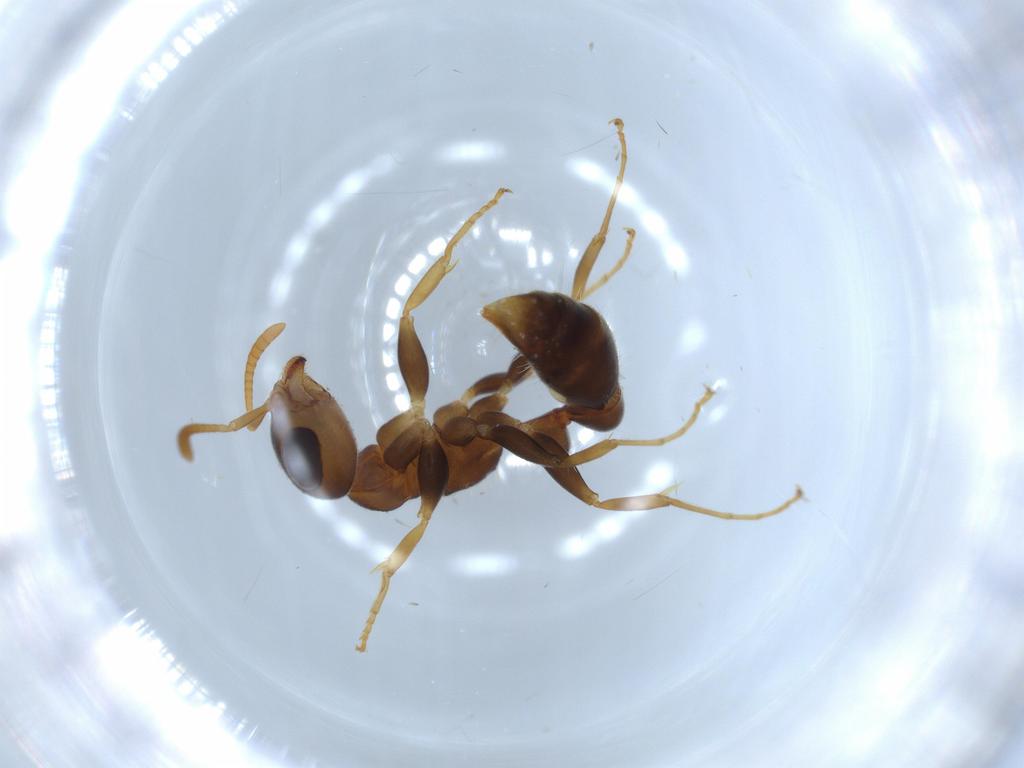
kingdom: Animalia
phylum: Arthropoda
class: Insecta
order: Hymenoptera
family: Formicidae
